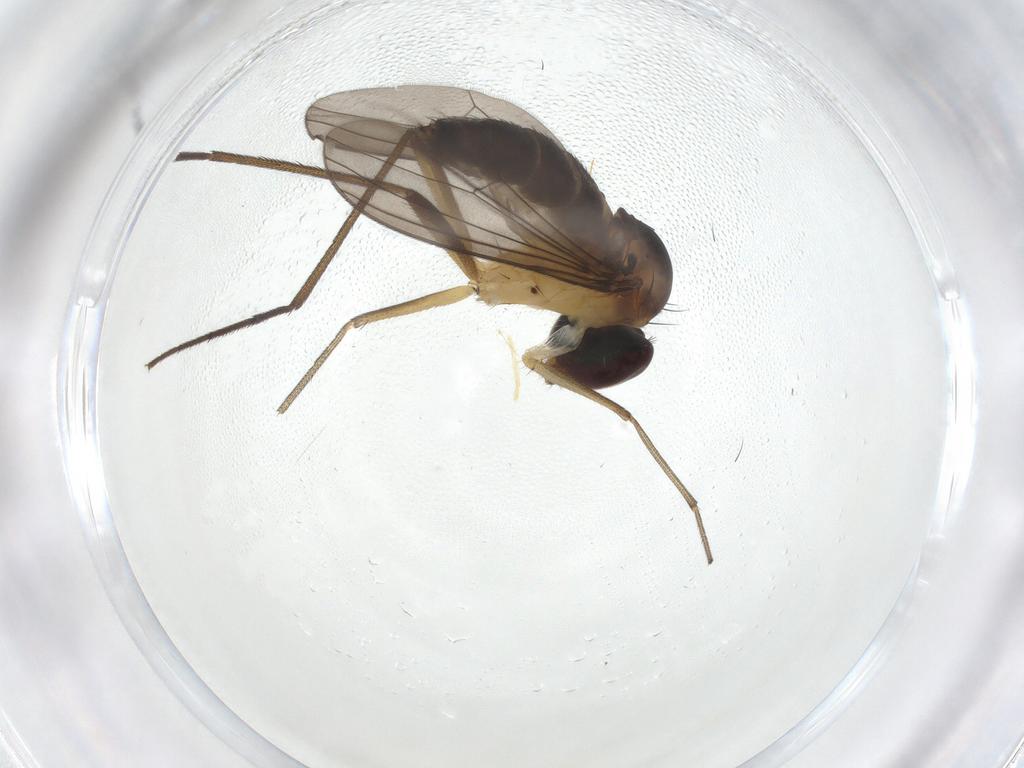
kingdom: Animalia
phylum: Arthropoda
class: Insecta
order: Diptera
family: Dolichopodidae
